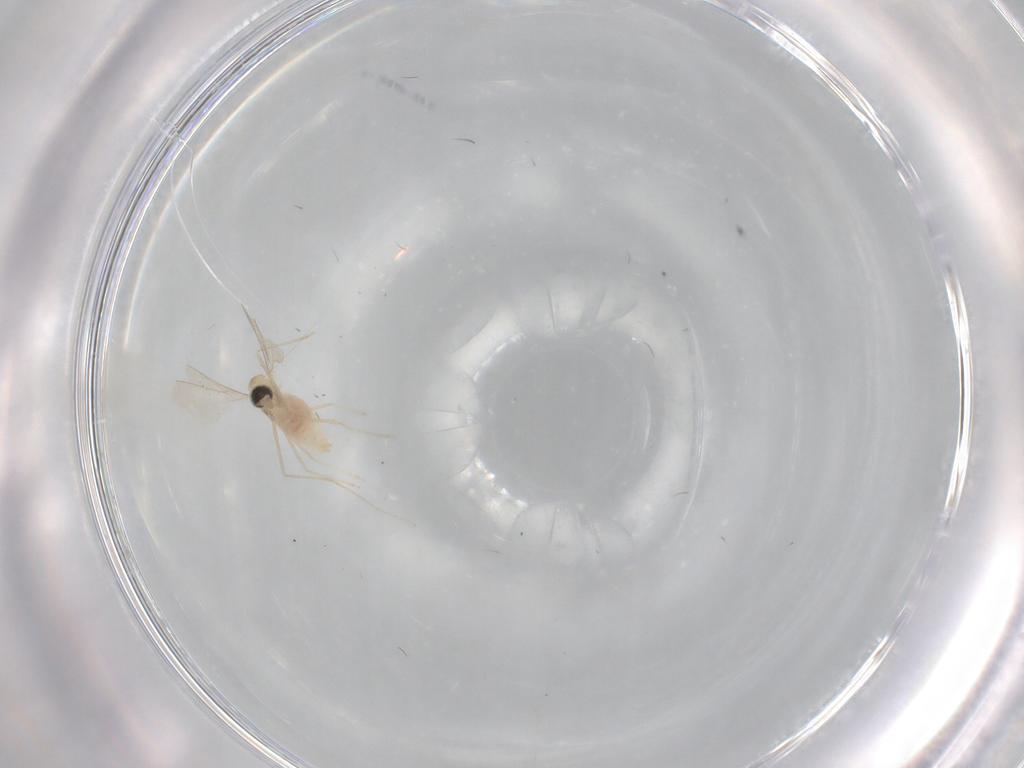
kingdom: Animalia
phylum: Arthropoda
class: Insecta
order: Diptera
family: Cecidomyiidae
